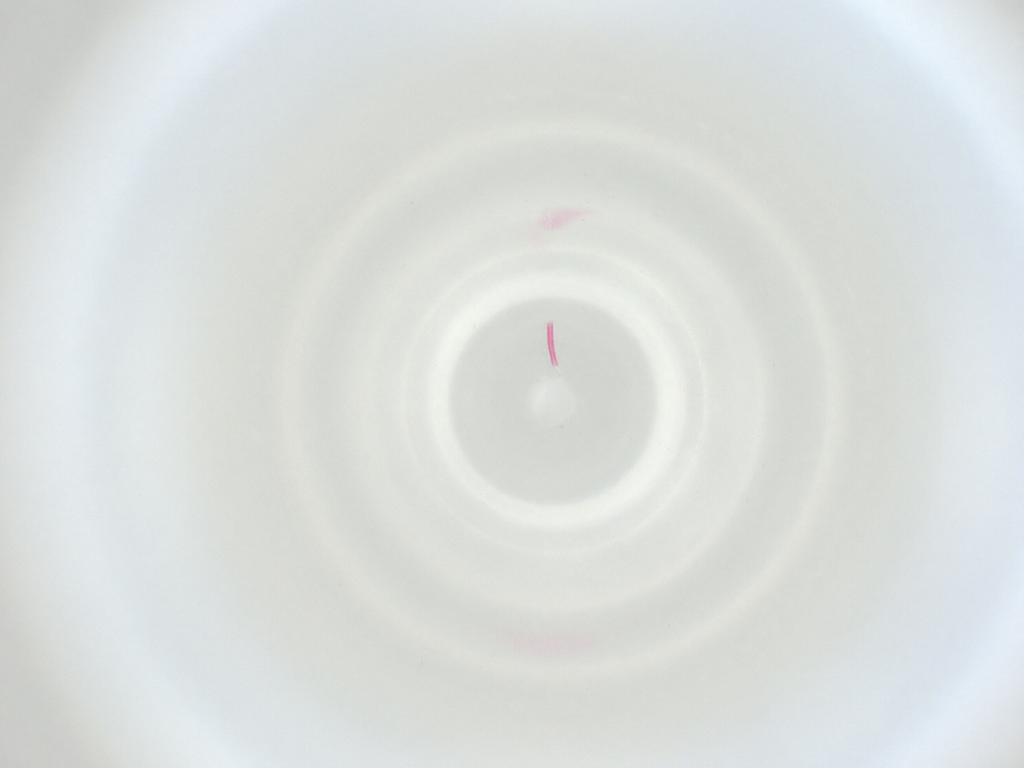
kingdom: Animalia
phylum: Arthropoda
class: Insecta
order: Diptera
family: Cecidomyiidae
